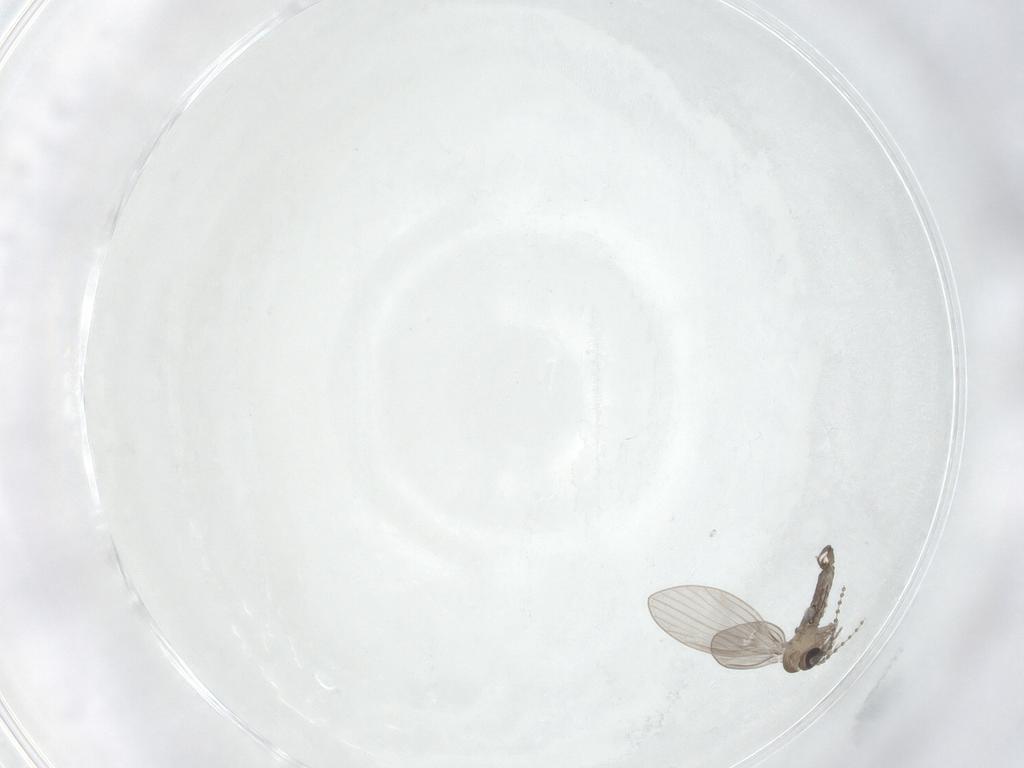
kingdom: Animalia
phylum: Arthropoda
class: Insecta
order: Diptera
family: Psychodidae
